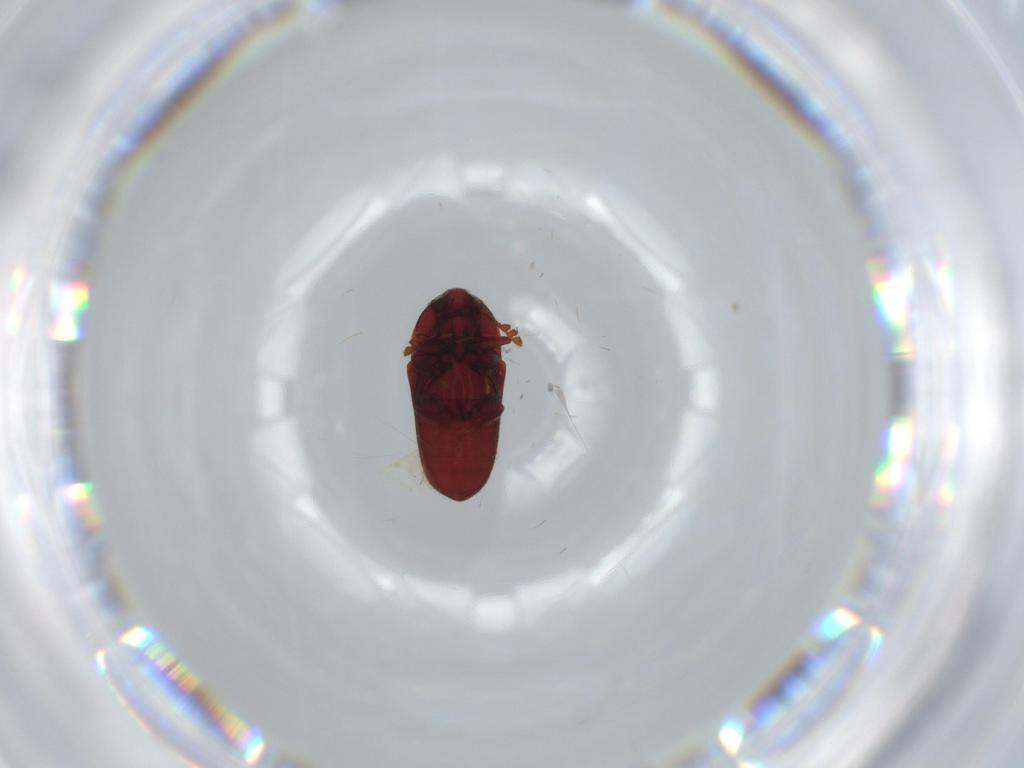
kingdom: Animalia
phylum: Arthropoda
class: Insecta
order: Coleoptera
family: Throscidae
